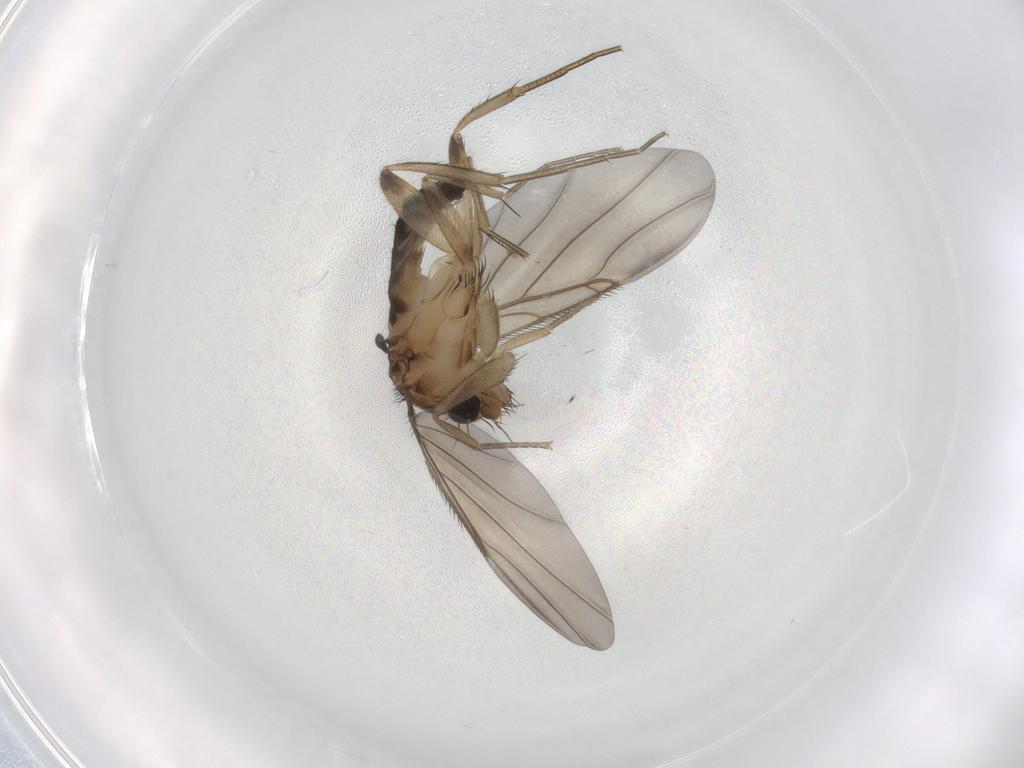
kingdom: Animalia
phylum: Arthropoda
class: Insecta
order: Diptera
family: Phoridae
